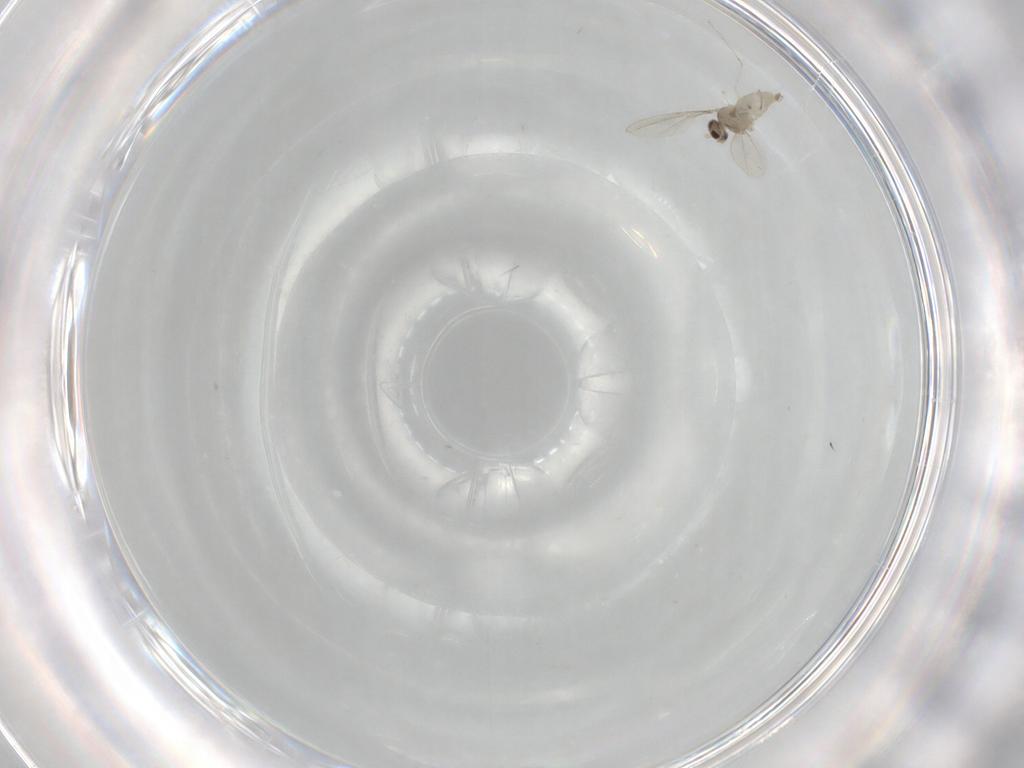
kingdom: Animalia
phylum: Arthropoda
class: Insecta
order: Diptera
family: Cecidomyiidae
